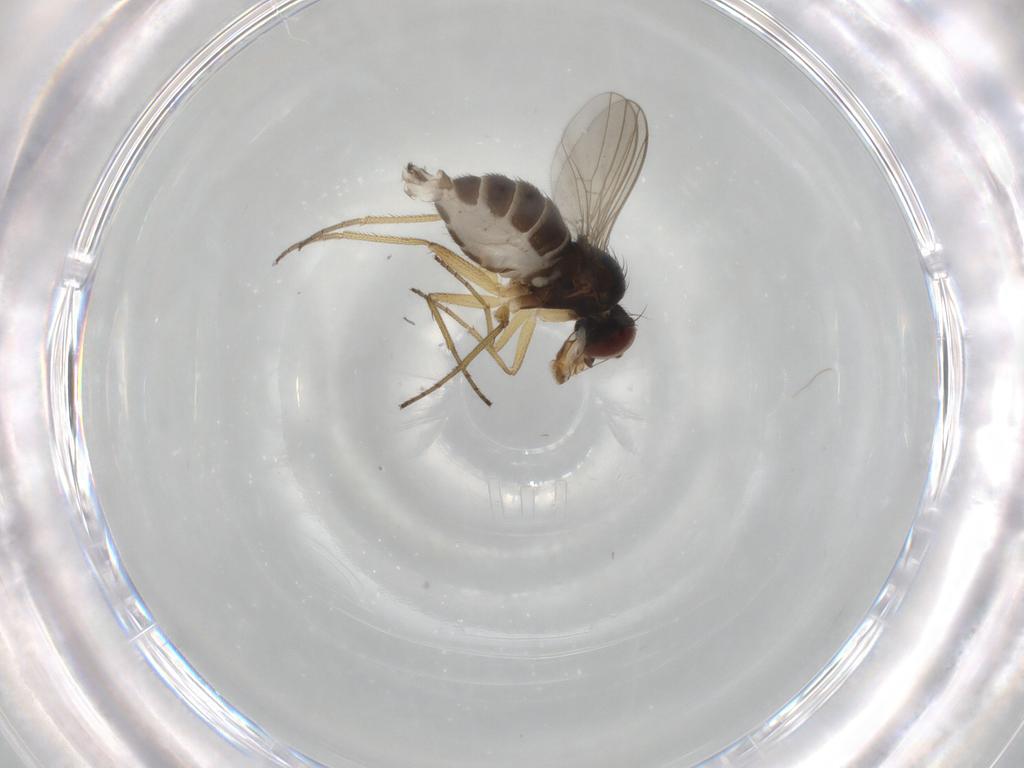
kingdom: Animalia
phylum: Arthropoda
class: Insecta
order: Diptera
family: Dolichopodidae
